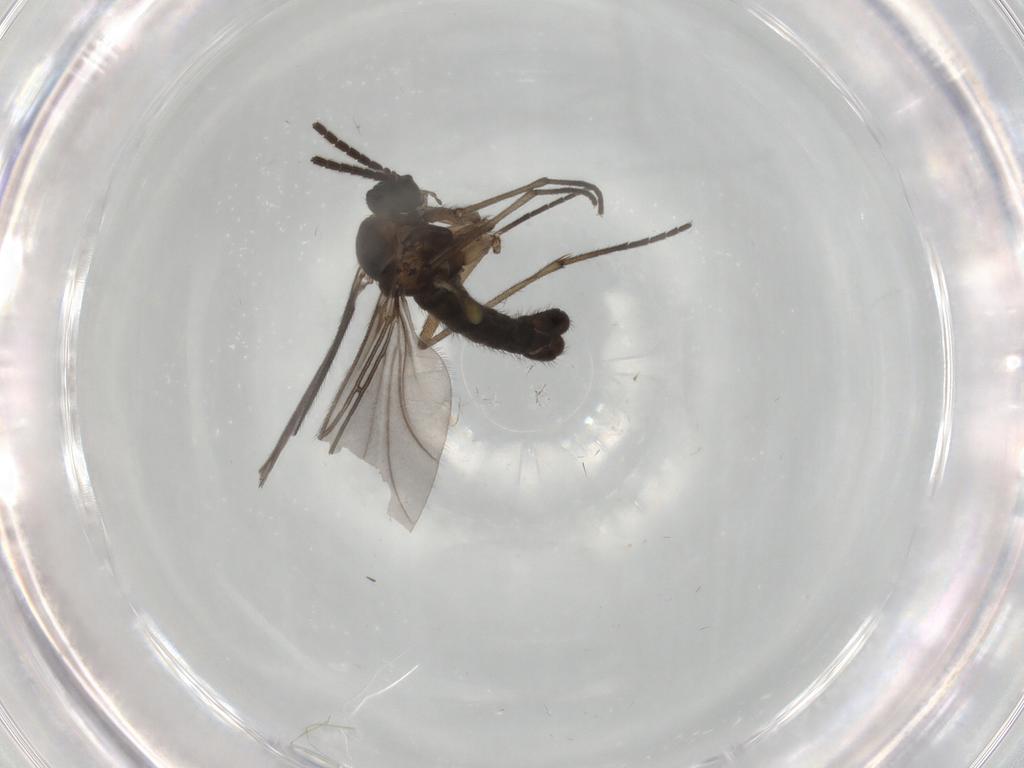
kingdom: Animalia
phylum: Arthropoda
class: Insecta
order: Diptera
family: Sciaridae
